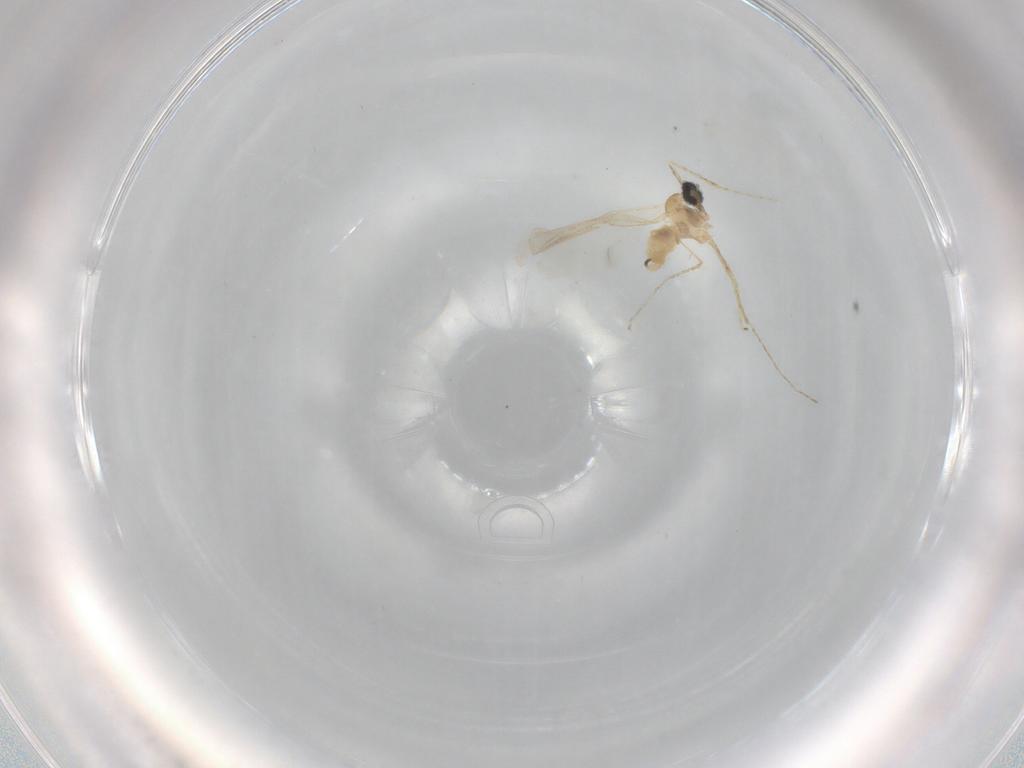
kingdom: Animalia
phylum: Arthropoda
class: Insecta
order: Diptera
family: Cecidomyiidae
